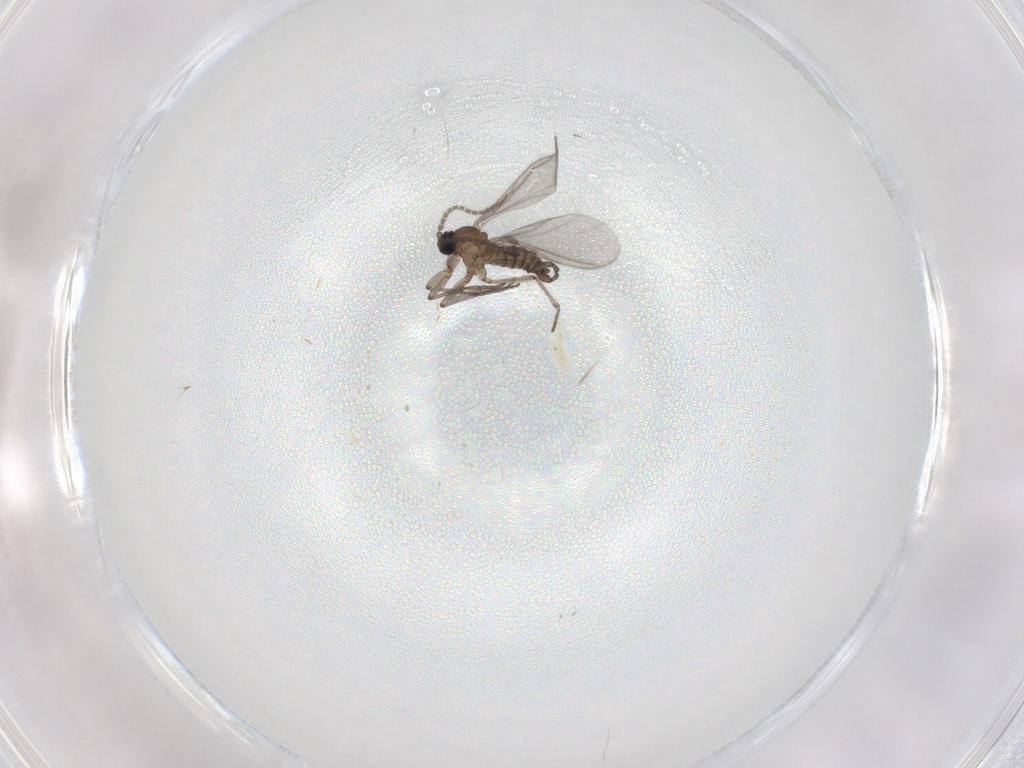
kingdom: Animalia
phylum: Arthropoda
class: Insecta
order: Diptera
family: Sciaridae
